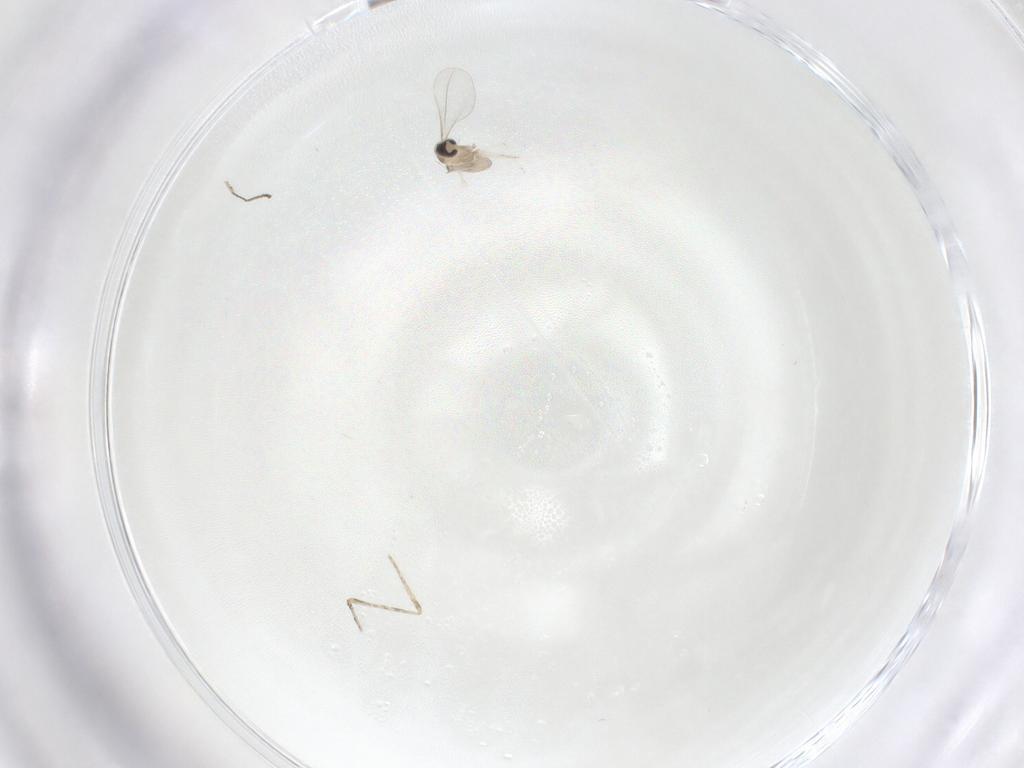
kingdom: Animalia
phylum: Arthropoda
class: Insecta
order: Diptera
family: Cecidomyiidae
